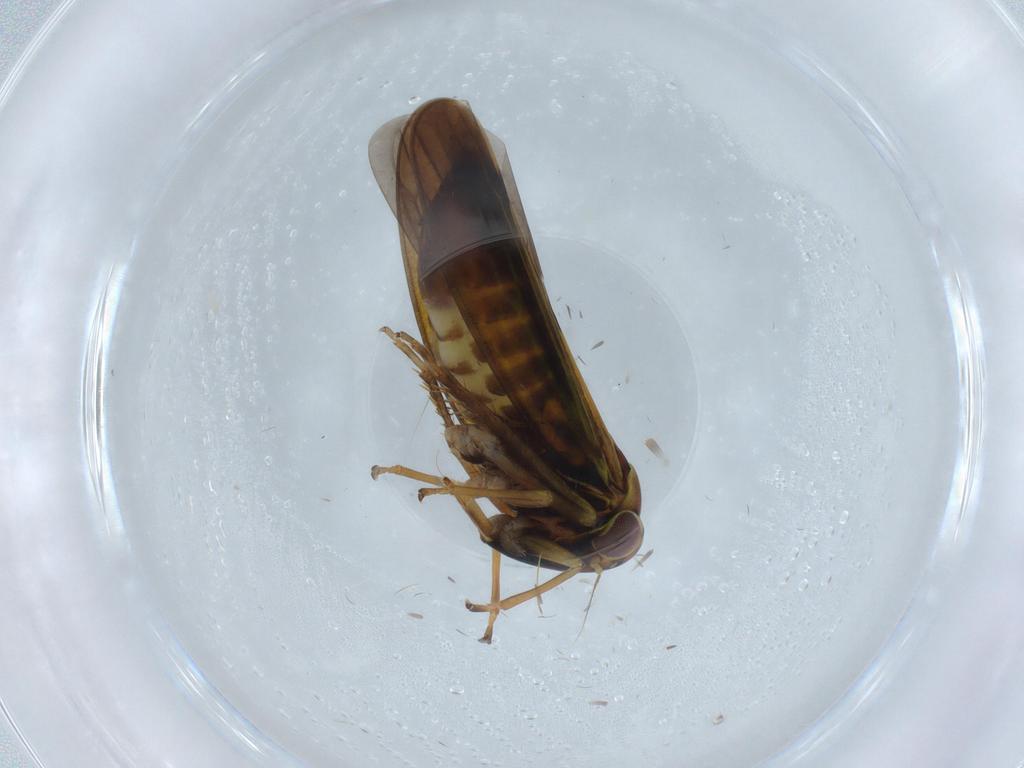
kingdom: Animalia
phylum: Arthropoda
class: Insecta
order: Hemiptera
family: Cicadellidae
